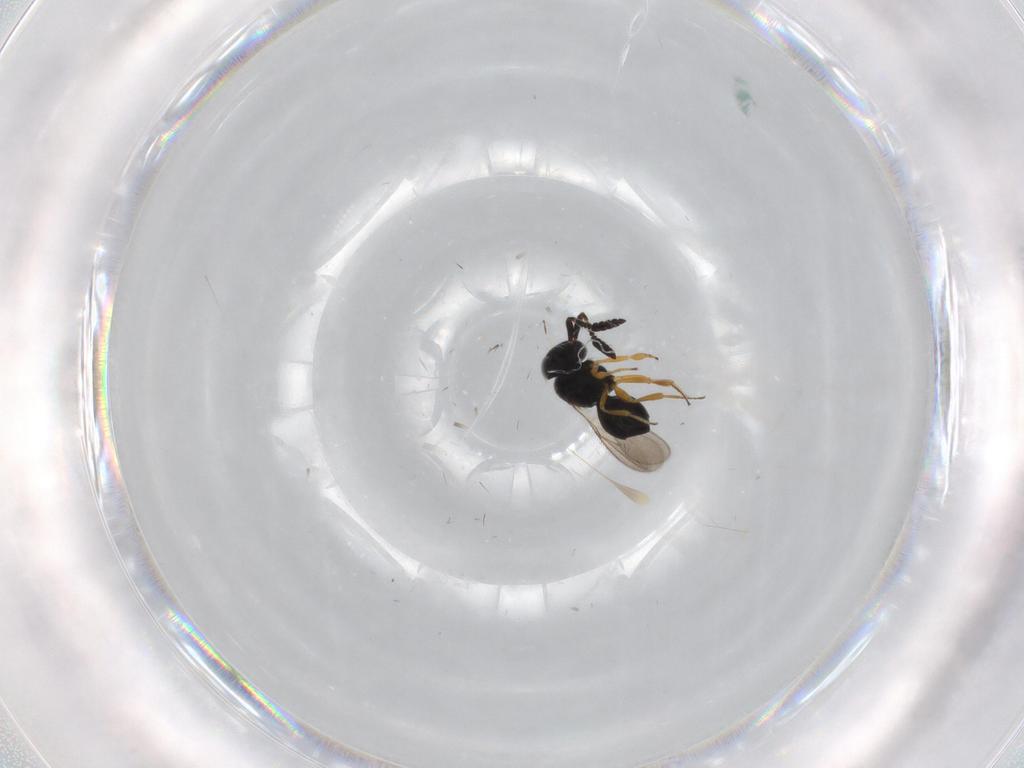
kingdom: Animalia
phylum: Arthropoda
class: Insecta
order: Hymenoptera
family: Scelionidae
